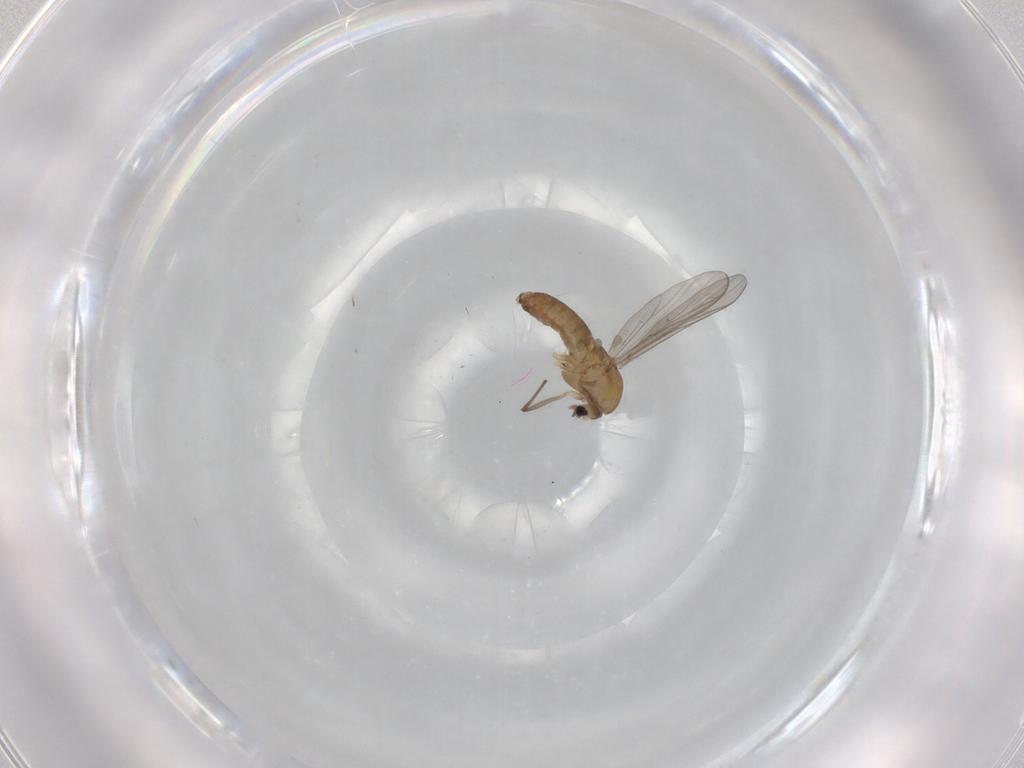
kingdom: Animalia
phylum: Arthropoda
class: Insecta
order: Diptera
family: Chironomidae
